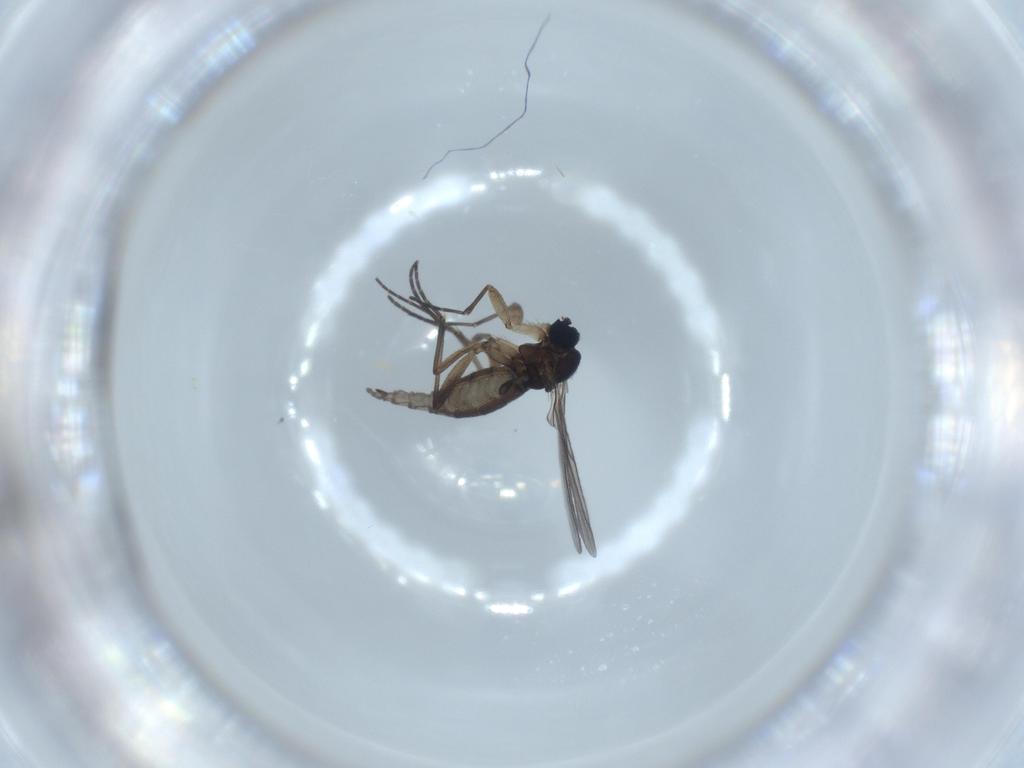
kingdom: Animalia
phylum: Arthropoda
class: Insecta
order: Diptera
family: Sciaridae
